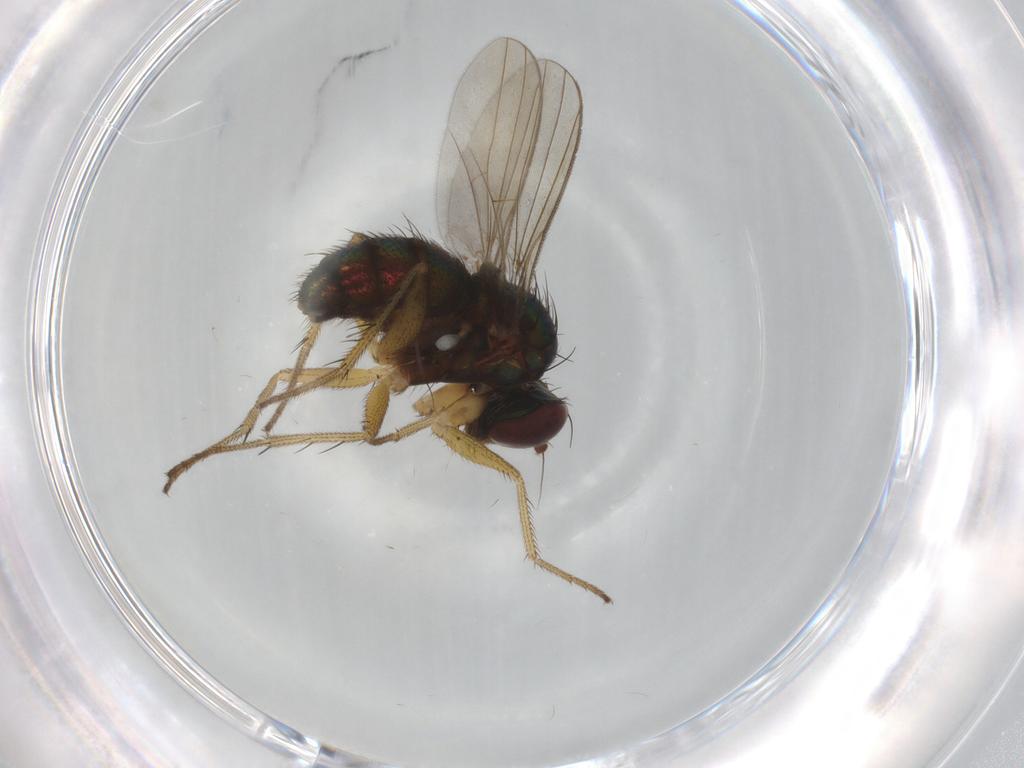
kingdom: Animalia
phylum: Arthropoda
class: Insecta
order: Diptera
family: Dolichopodidae
